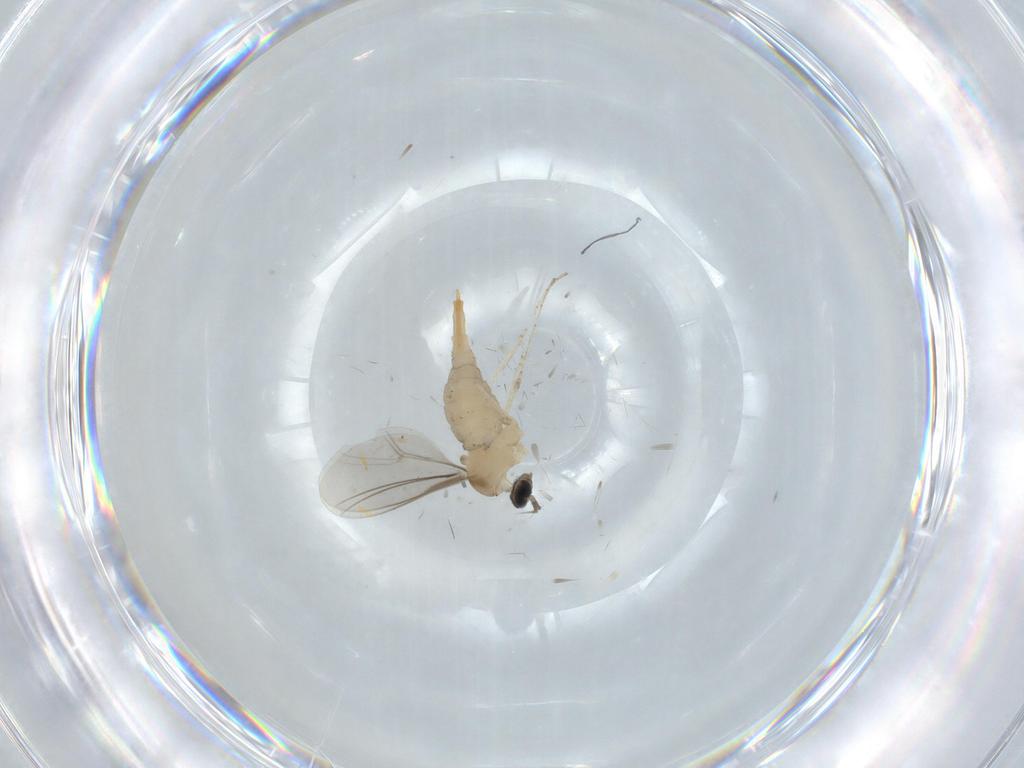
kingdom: Animalia
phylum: Arthropoda
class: Insecta
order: Diptera
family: Cecidomyiidae
